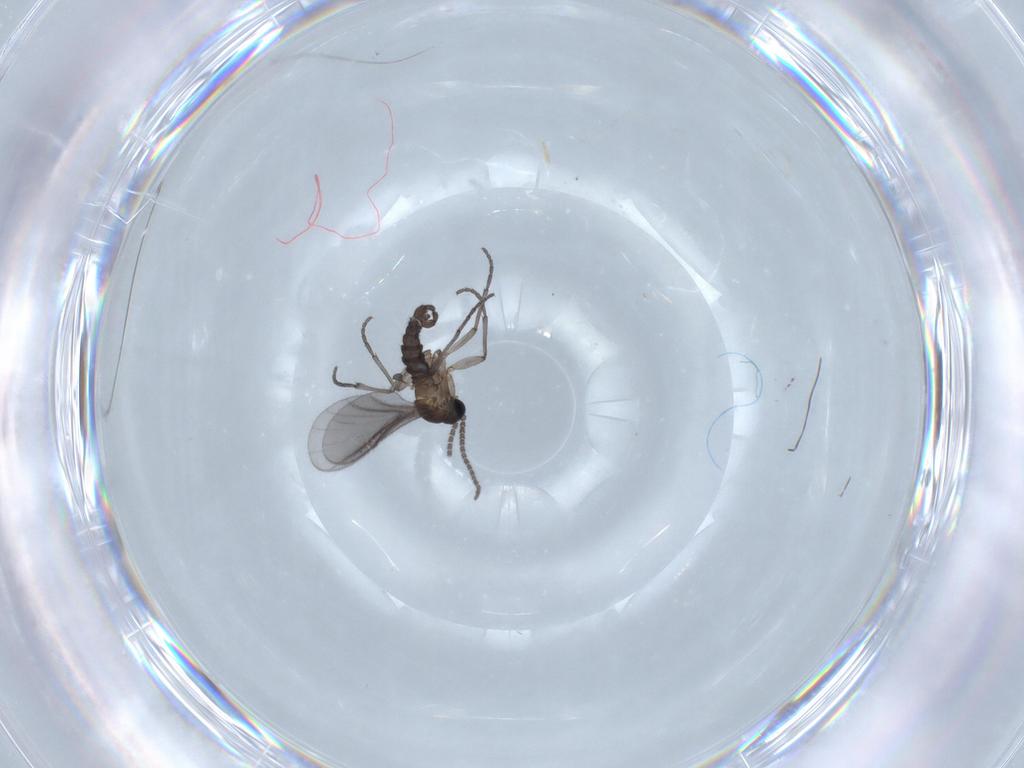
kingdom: Animalia
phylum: Arthropoda
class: Insecta
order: Diptera
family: Sciaridae
